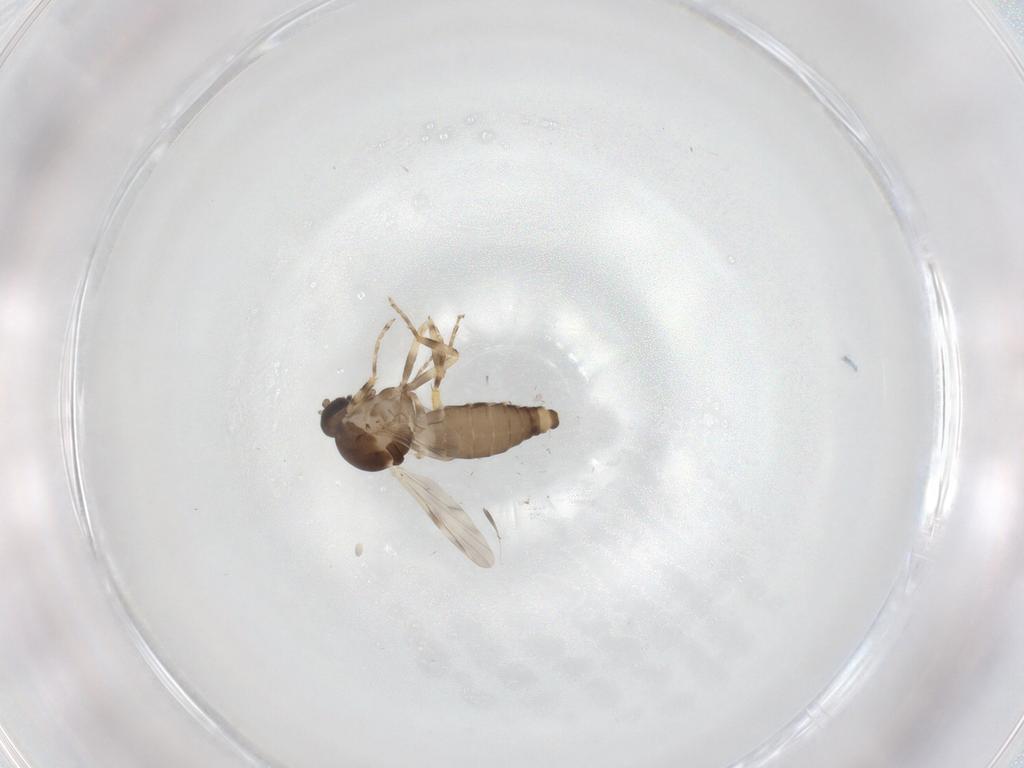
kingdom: Animalia
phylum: Arthropoda
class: Insecta
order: Diptera
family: Ceratopogonidae
